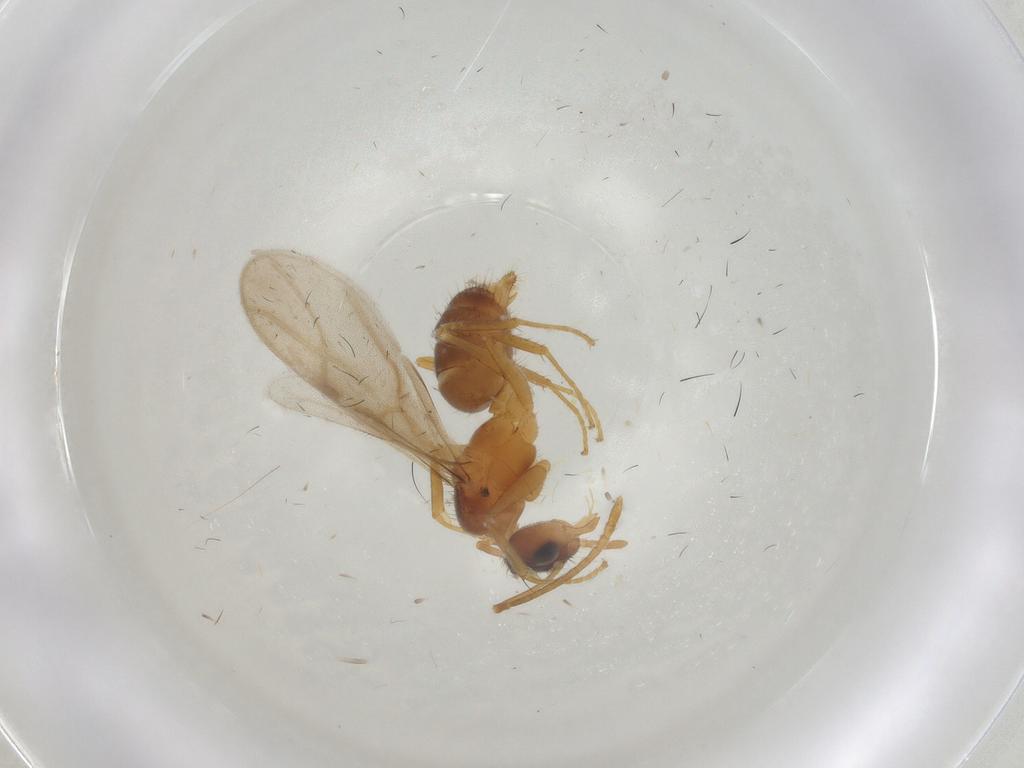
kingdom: Animalia
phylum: Arthropoda
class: Insecta
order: Hymenoptera
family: Formicidae
